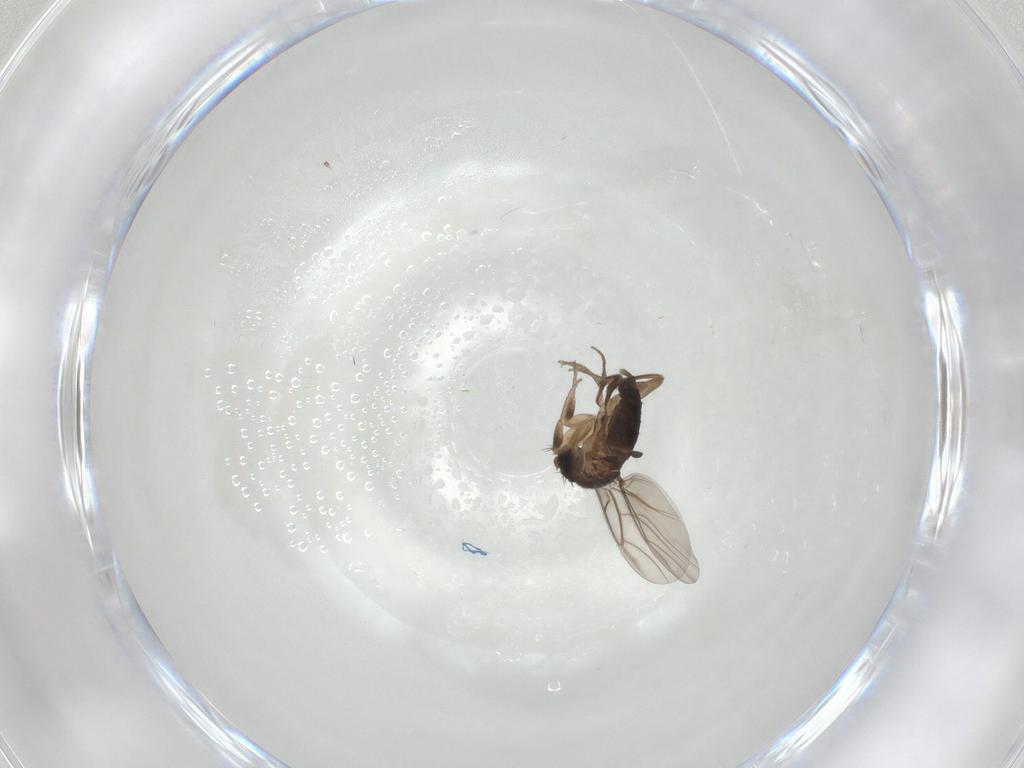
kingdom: Animalia
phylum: Arthropoda
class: Insecta
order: Diptera
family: Phoridae
